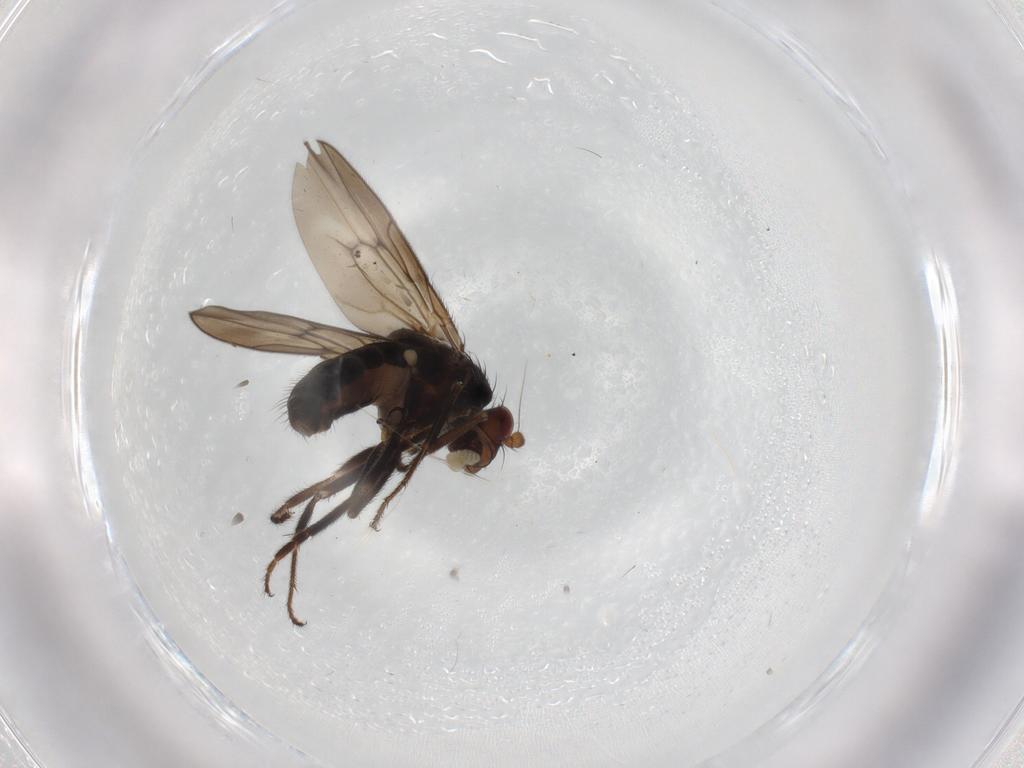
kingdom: Animalia
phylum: Arthropoda
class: Insecta
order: Diptera
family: Sphaeroceridae
